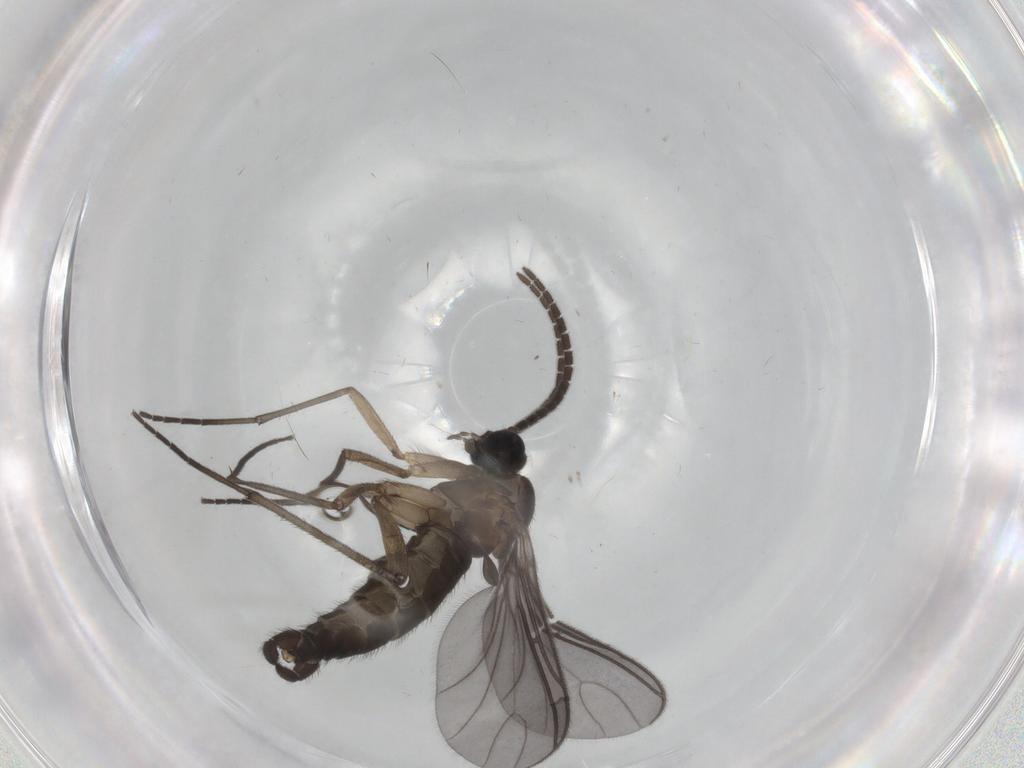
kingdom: Animalia
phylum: Arthropoda
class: Insecta
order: Diptera
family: Sciaridae
